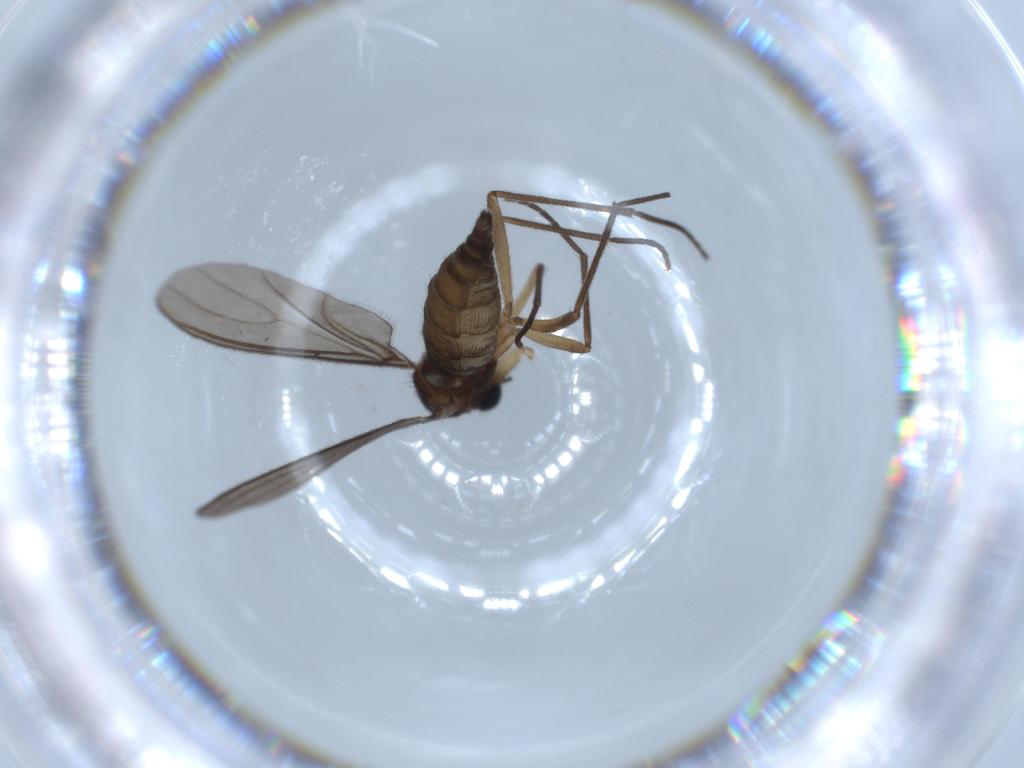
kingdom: Animalia
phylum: Arthropoda
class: Insecta
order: Diptera
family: Sciaridae
